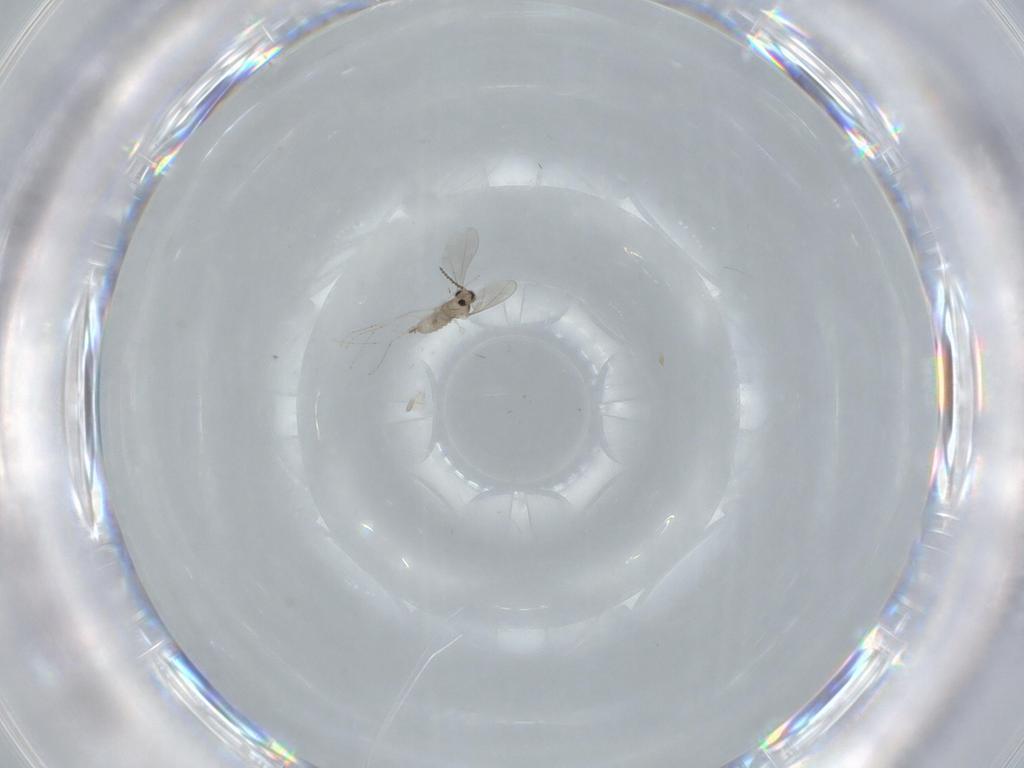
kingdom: Animalia
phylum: Arthropoda
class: Insecta
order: Diptera
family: Cecidomyiidae
